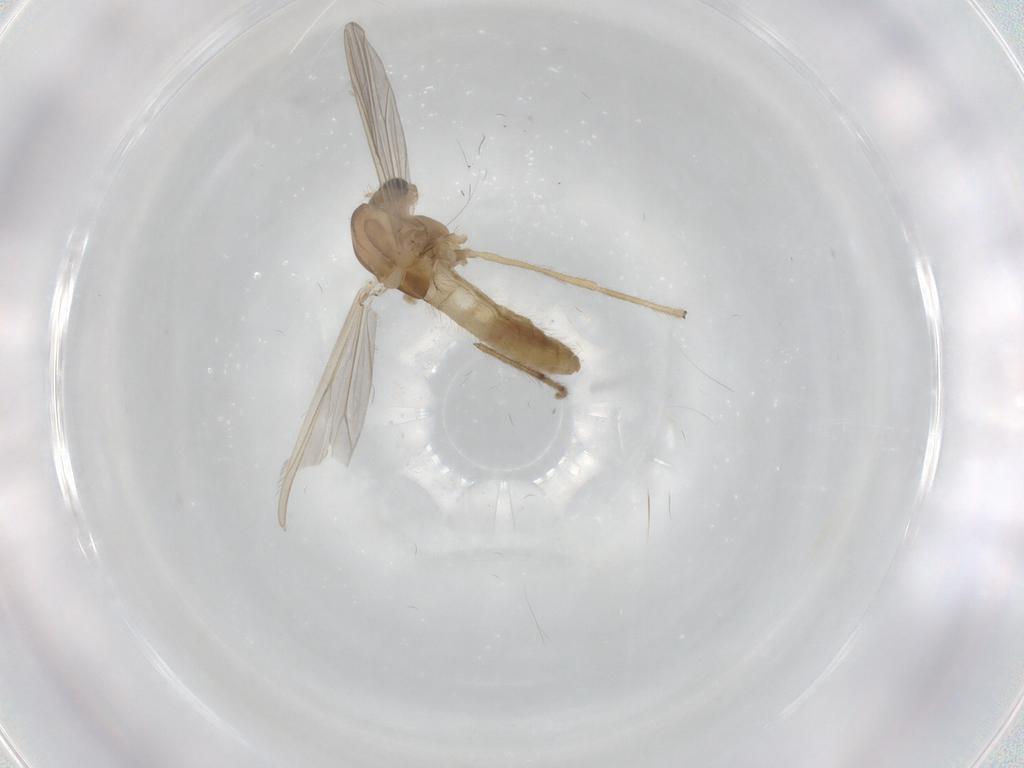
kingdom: Animalia
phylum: Arthropoda
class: Insecta
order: Diptera
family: Chironomidae
